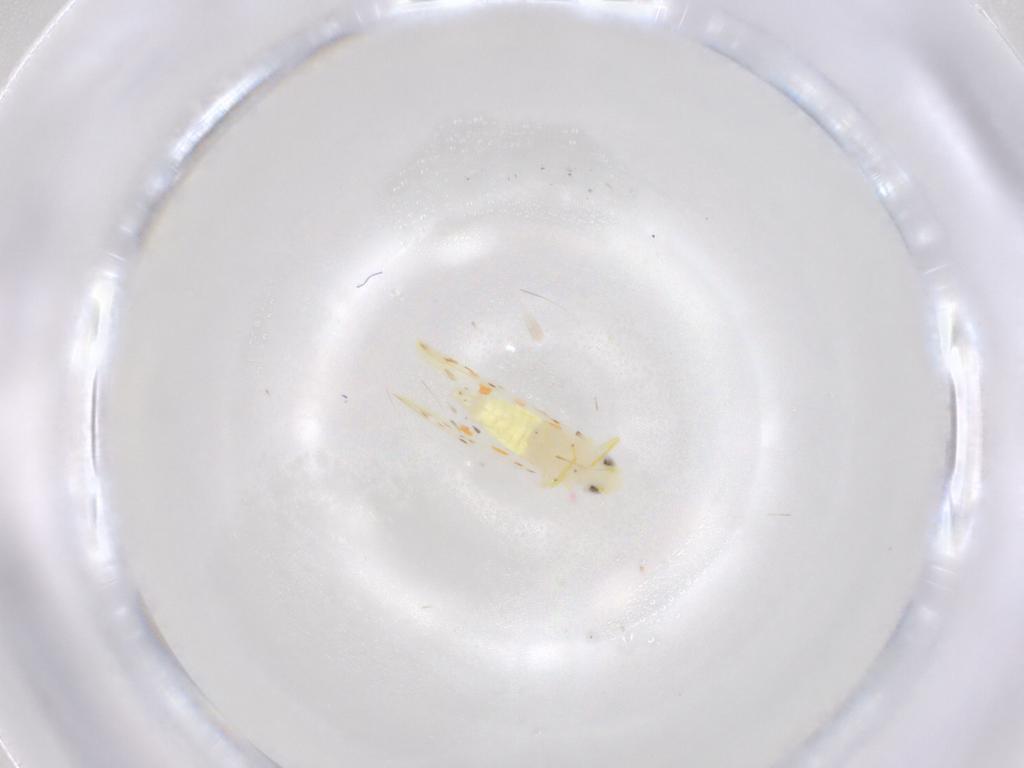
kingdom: Animalia
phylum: Arthropoda
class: Insecta
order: Hemiptera
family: Cicadellidae
